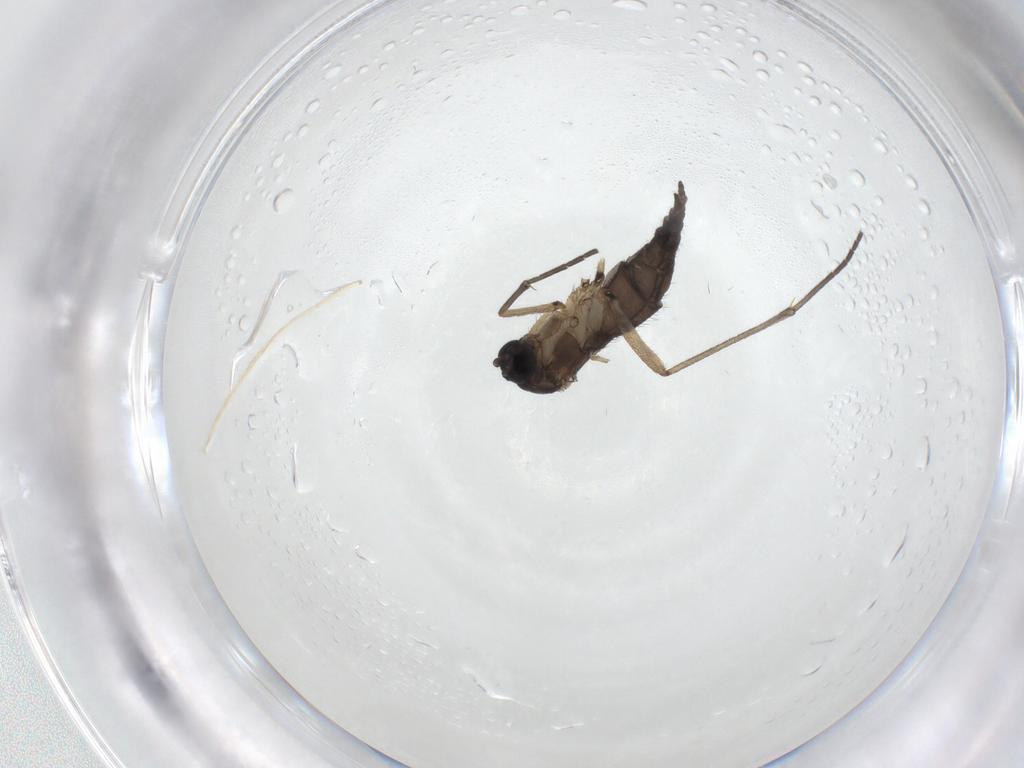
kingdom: Animalia
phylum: Arthropoda
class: Insecta
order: Diptera
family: Sciaridae
